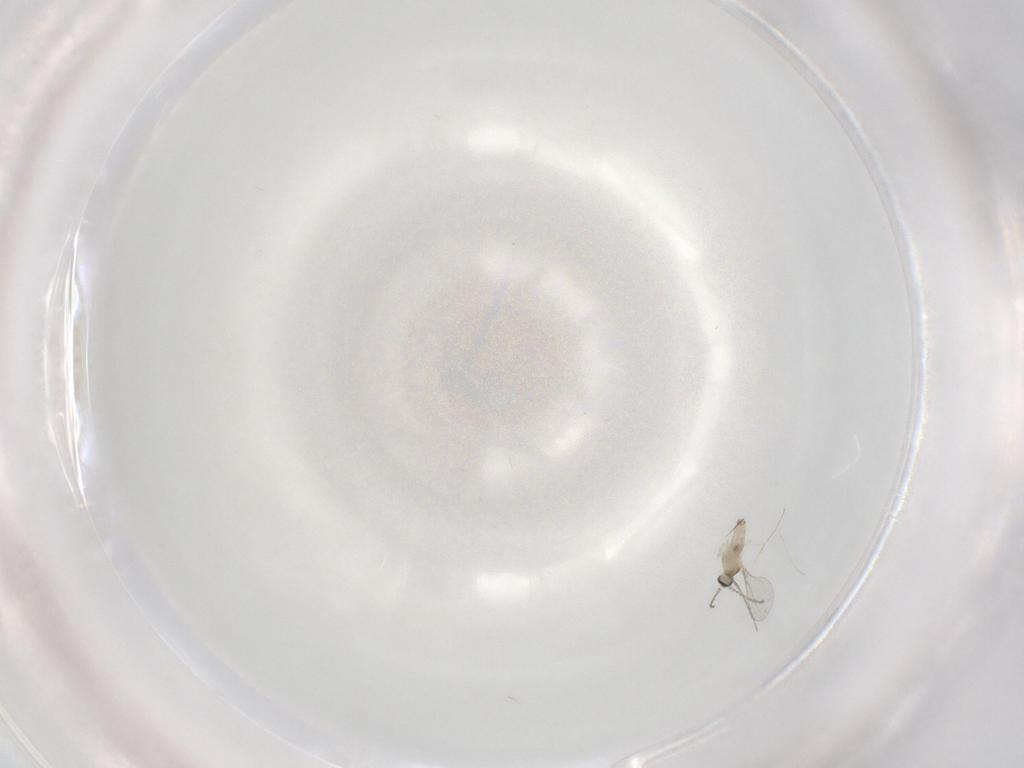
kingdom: Animalia
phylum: Arthropoda
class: Insecta
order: Diptera
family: Cecidomyiidae
